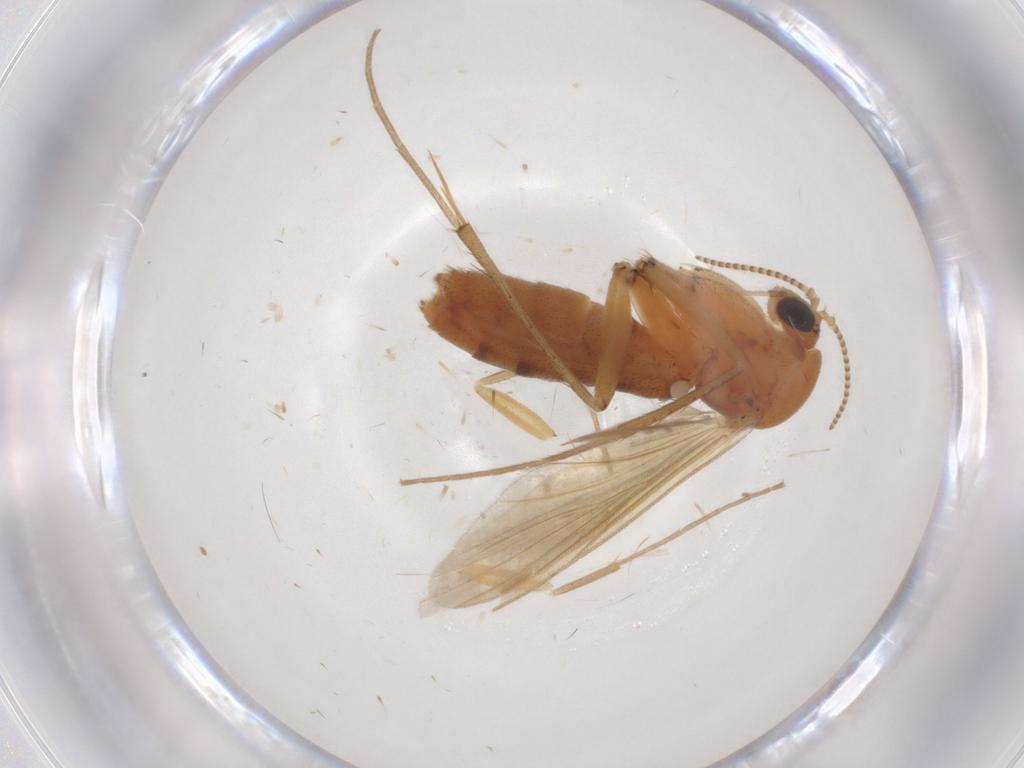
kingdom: Animalia
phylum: Arthropoda
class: Insecta
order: Diptera
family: Mycetophilidae
